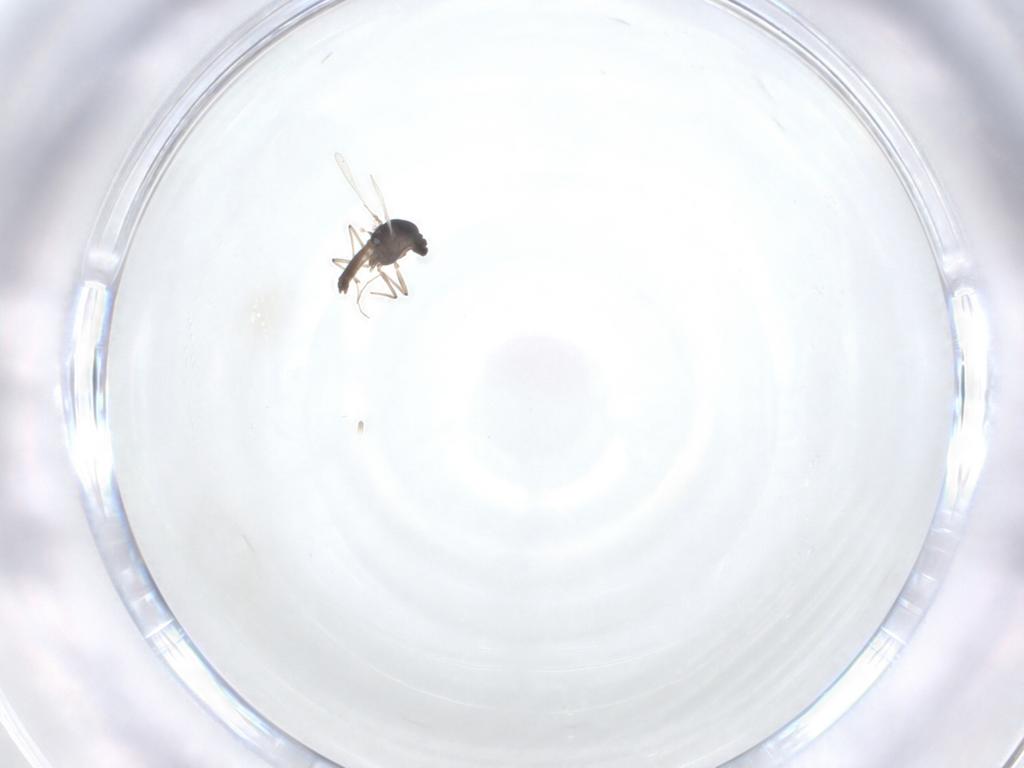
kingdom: Animalia
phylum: Arthropoda
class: Insecta
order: Diptera
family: Chironomidae
